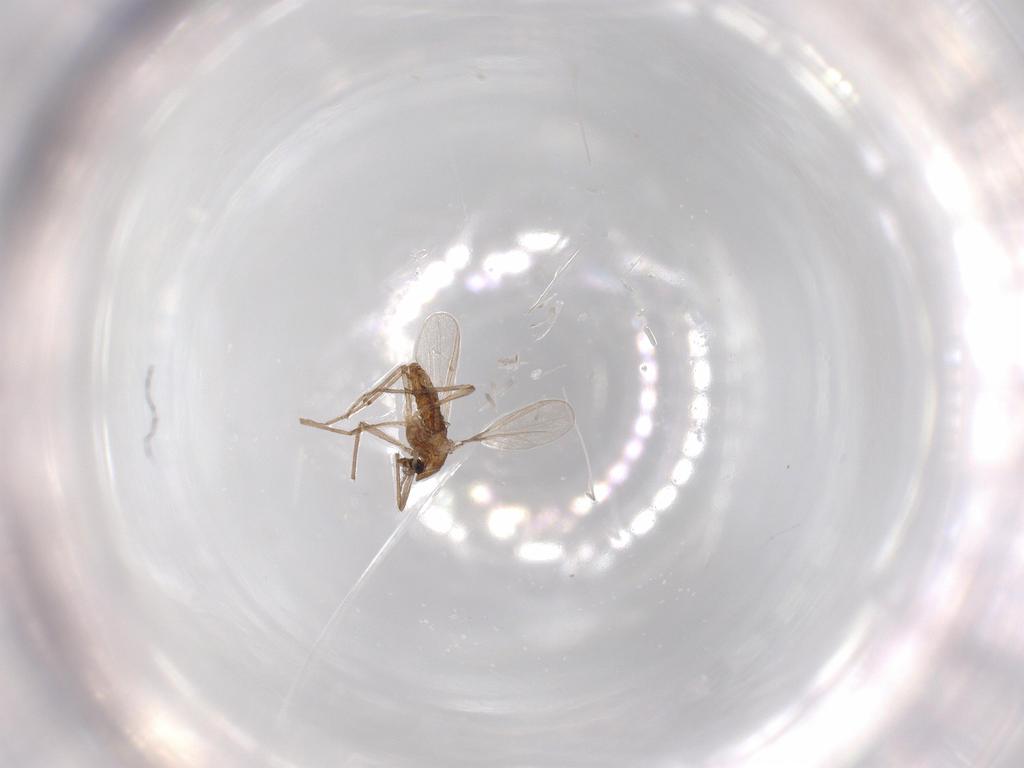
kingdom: Animalia
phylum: Arthropoda
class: Insecta
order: Diptera
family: Chironomidae
